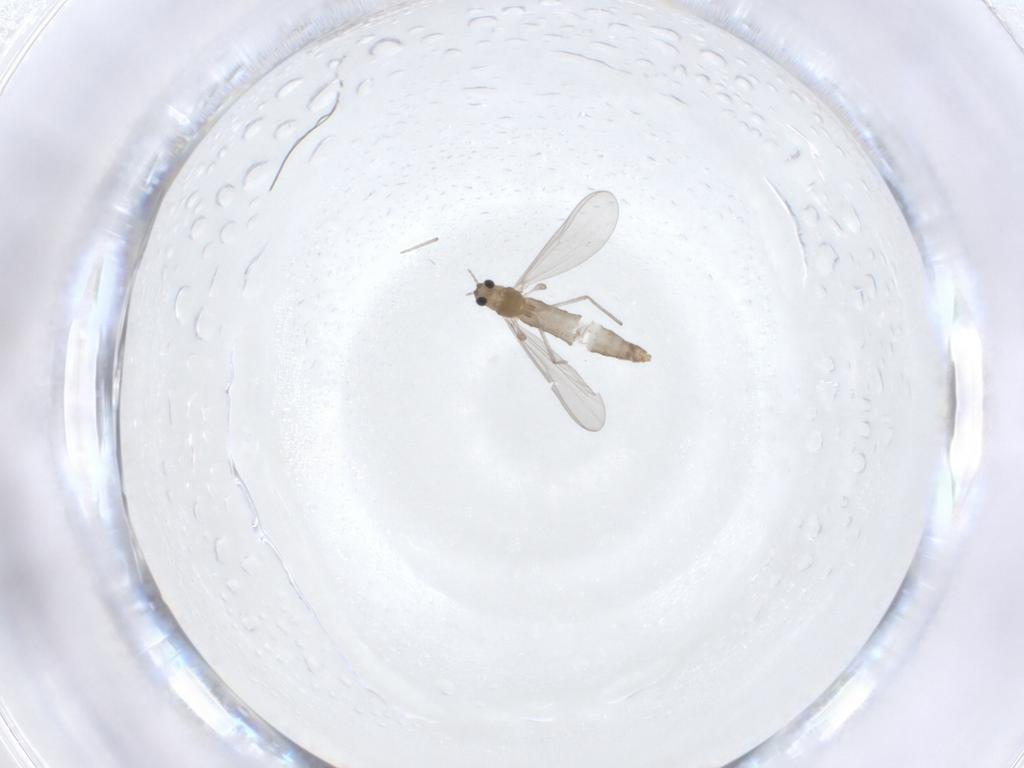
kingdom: Animalia
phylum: Arthropoda
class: Insecta
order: Diptera
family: Chironomidae
